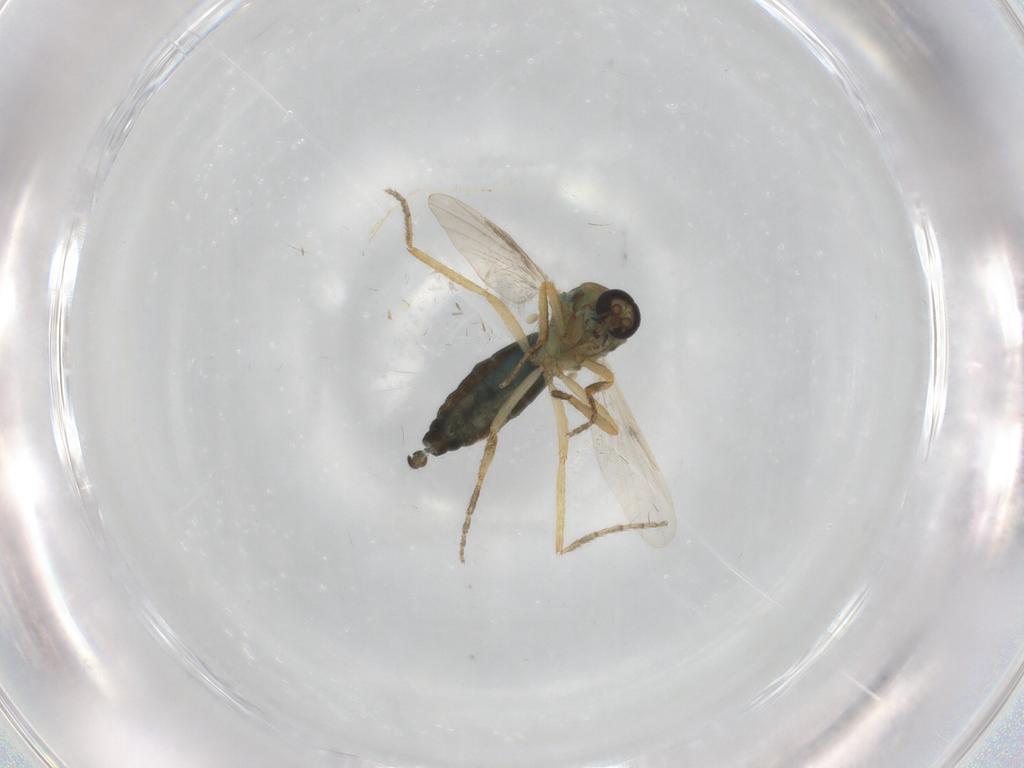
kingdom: Animalia
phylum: Arthropoda
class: Insecta
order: Diptera
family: Ceratopogonidae
